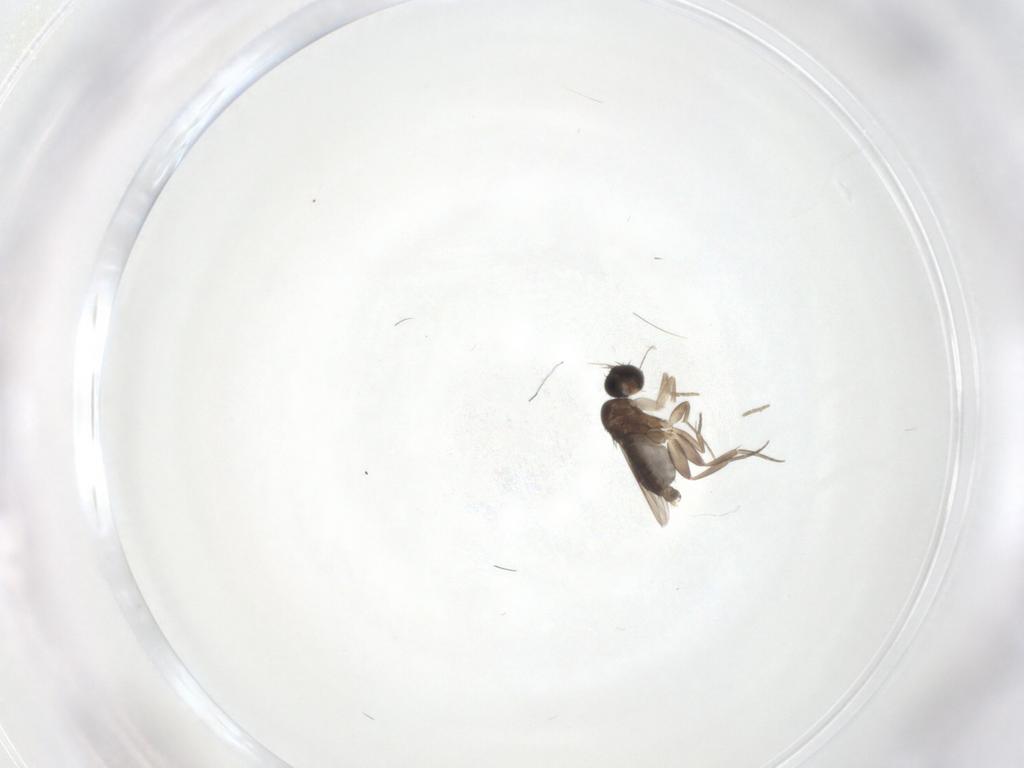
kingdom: Animalia
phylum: Arthropoda
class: Insecta
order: Diptera
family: Phoridae
